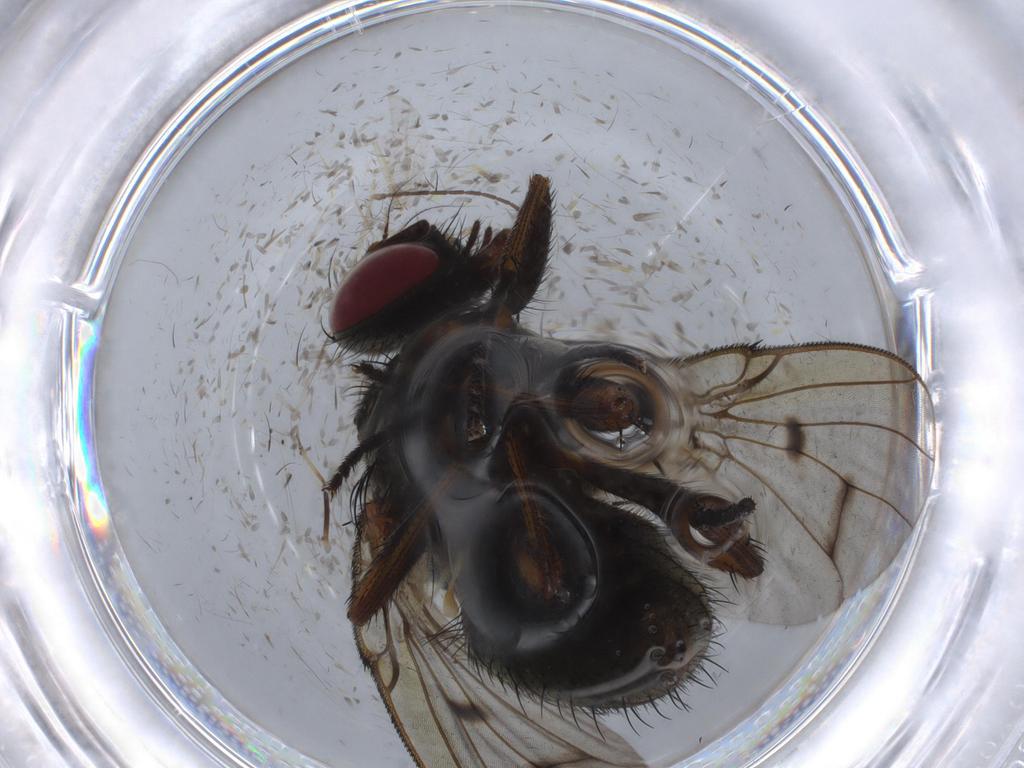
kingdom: Animalia
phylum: Arthropoda
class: Insecta
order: Diptera
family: Muscidae
